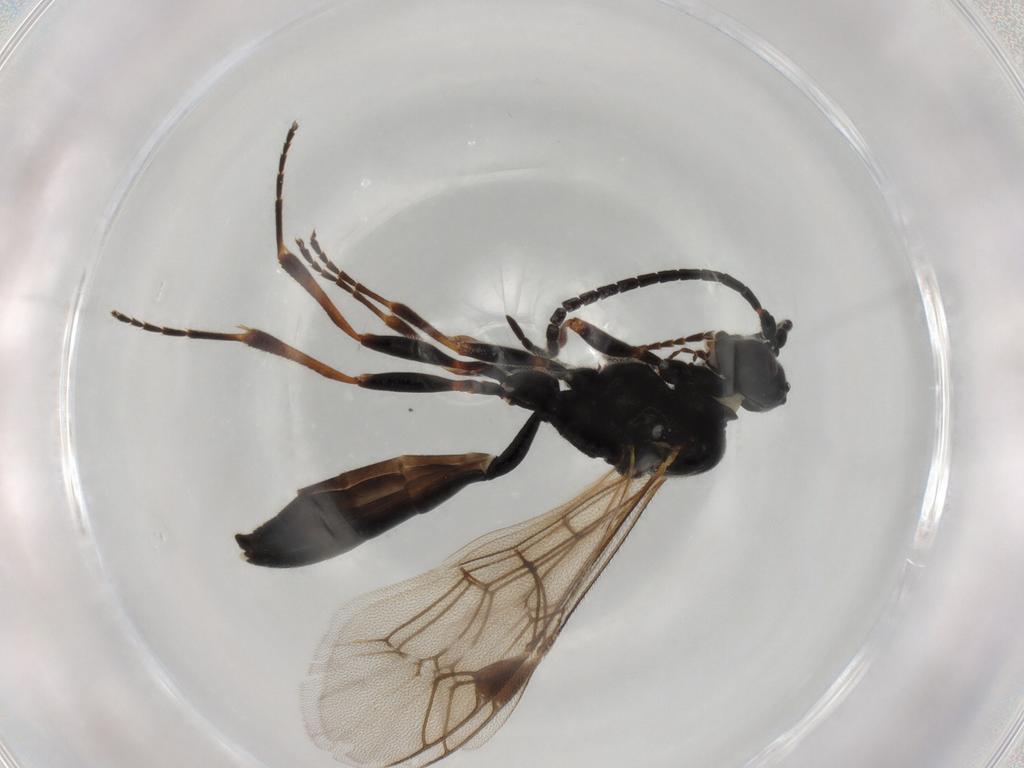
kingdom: Animalia
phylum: Arthropoda
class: Insecta
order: Hymenoptera
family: Ichneumonidae
